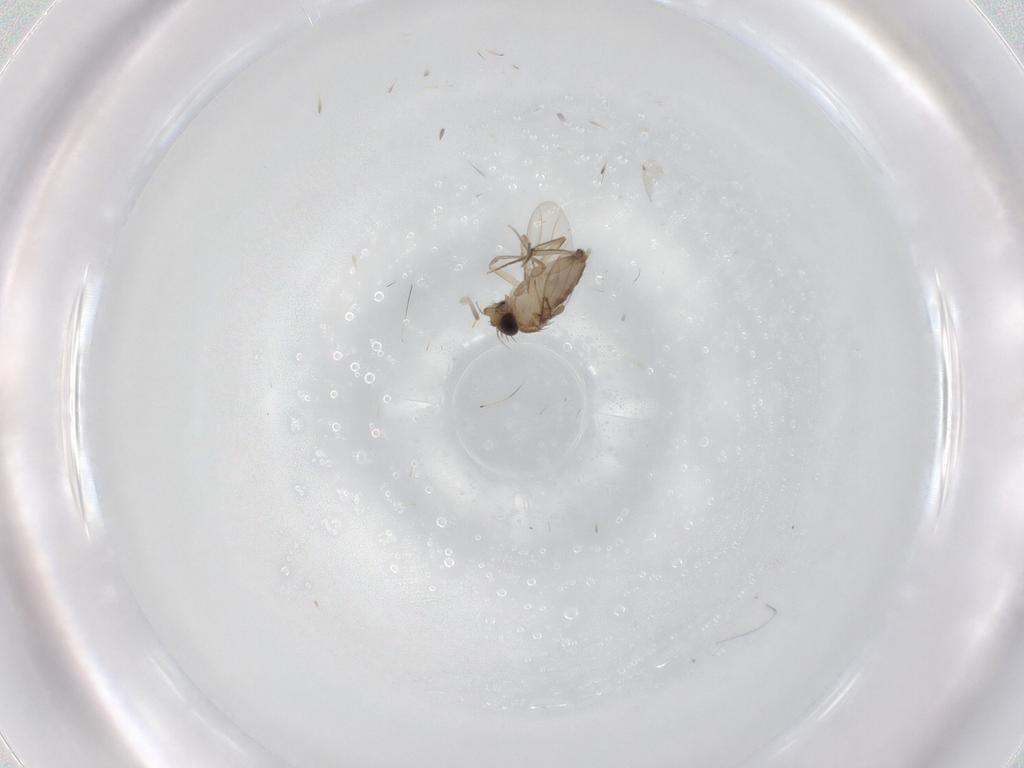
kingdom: Animalia
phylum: Arthropoda
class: Insecta
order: Diptera
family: Phoridae
